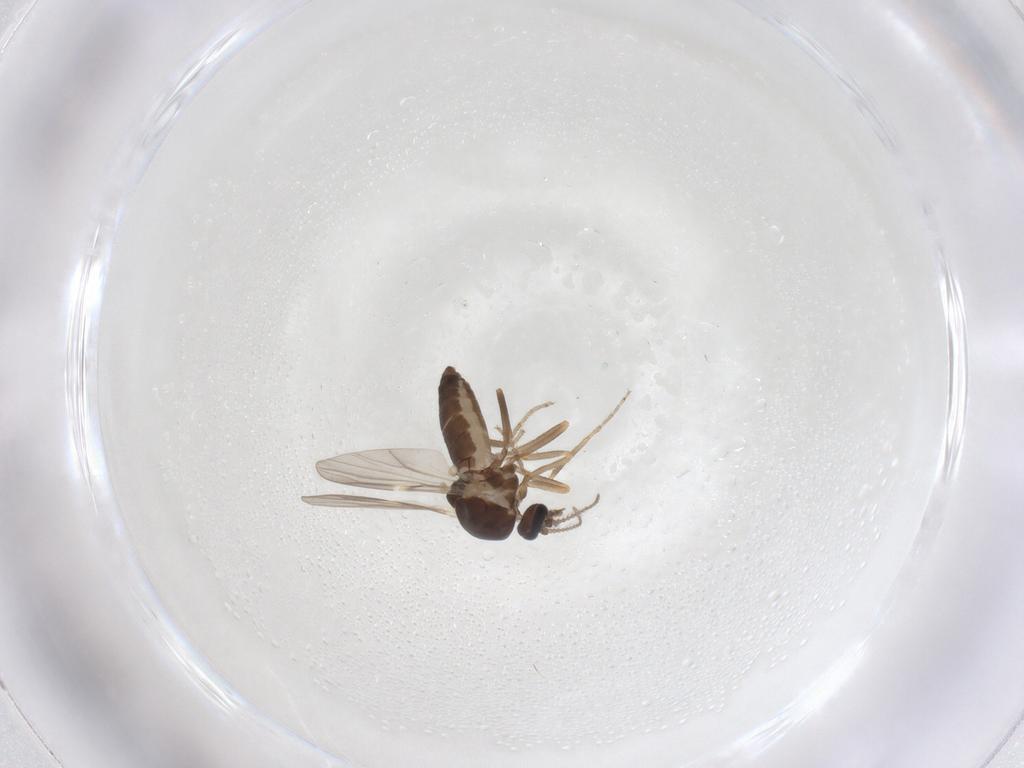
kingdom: Animalia
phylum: Arthropoda
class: Insecta
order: Diptera
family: Ceratopogonidae
